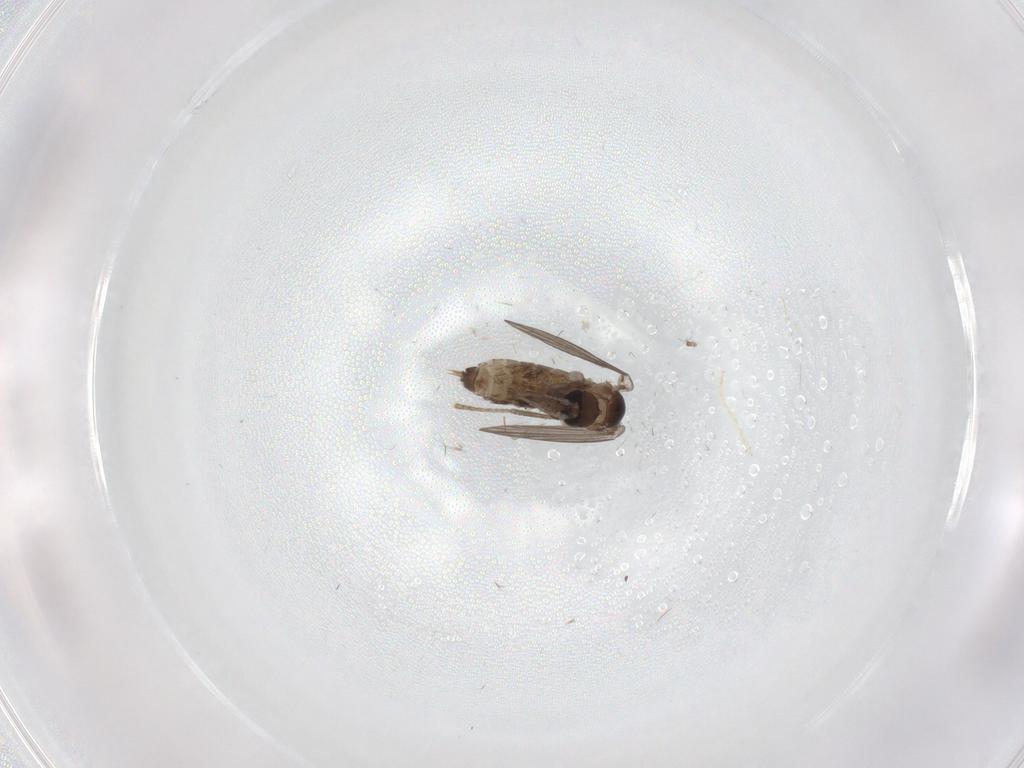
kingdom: Animalia
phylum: Arthropoda
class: Insecta
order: Diptera
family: Psychodidae
